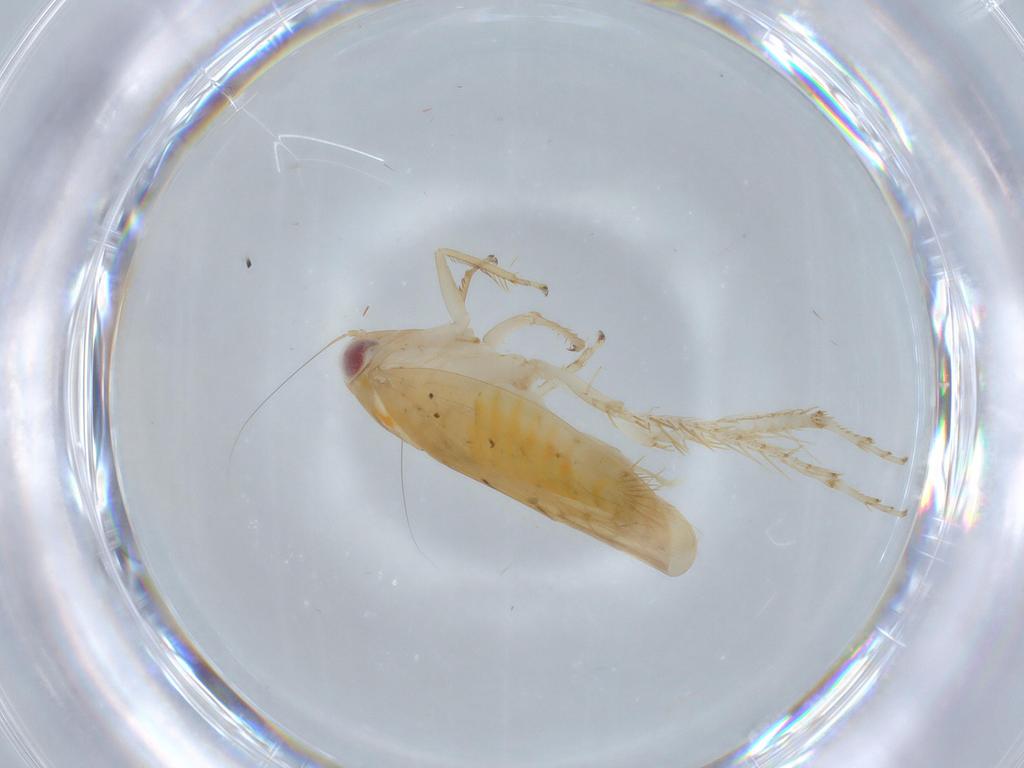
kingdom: Animalia
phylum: Arthropoda
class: Insecta
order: Hemiptera
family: Cicadellidae
